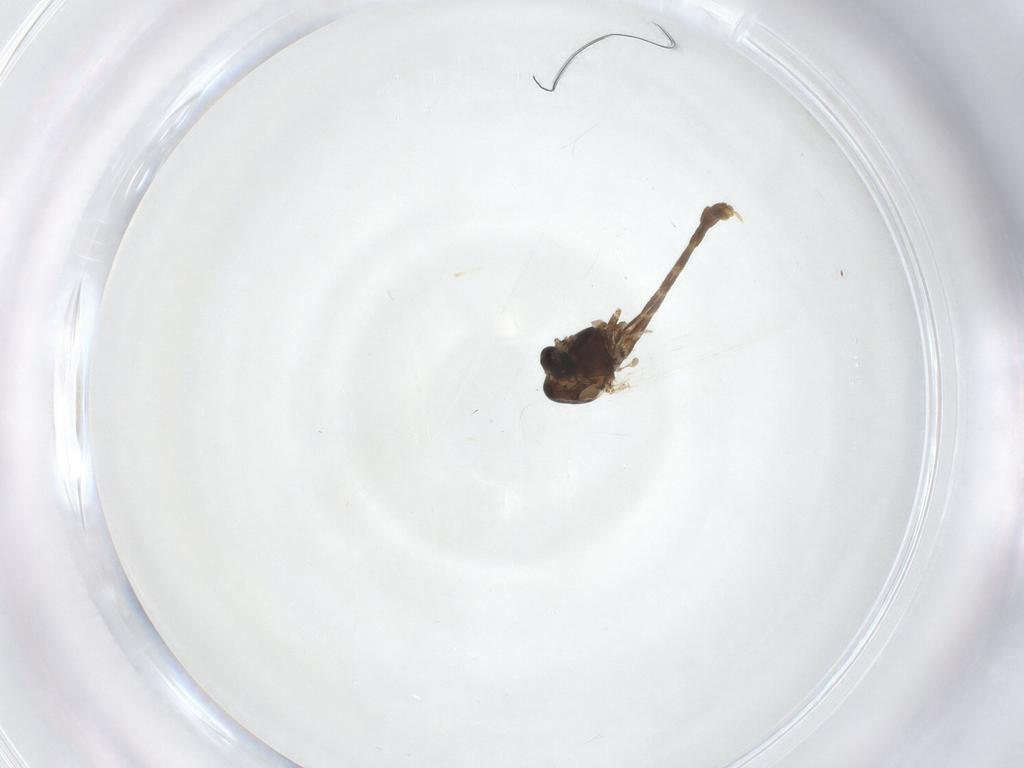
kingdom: Animalia
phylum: Arthropoda
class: Insecta
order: Diptera
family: Chironomidae
